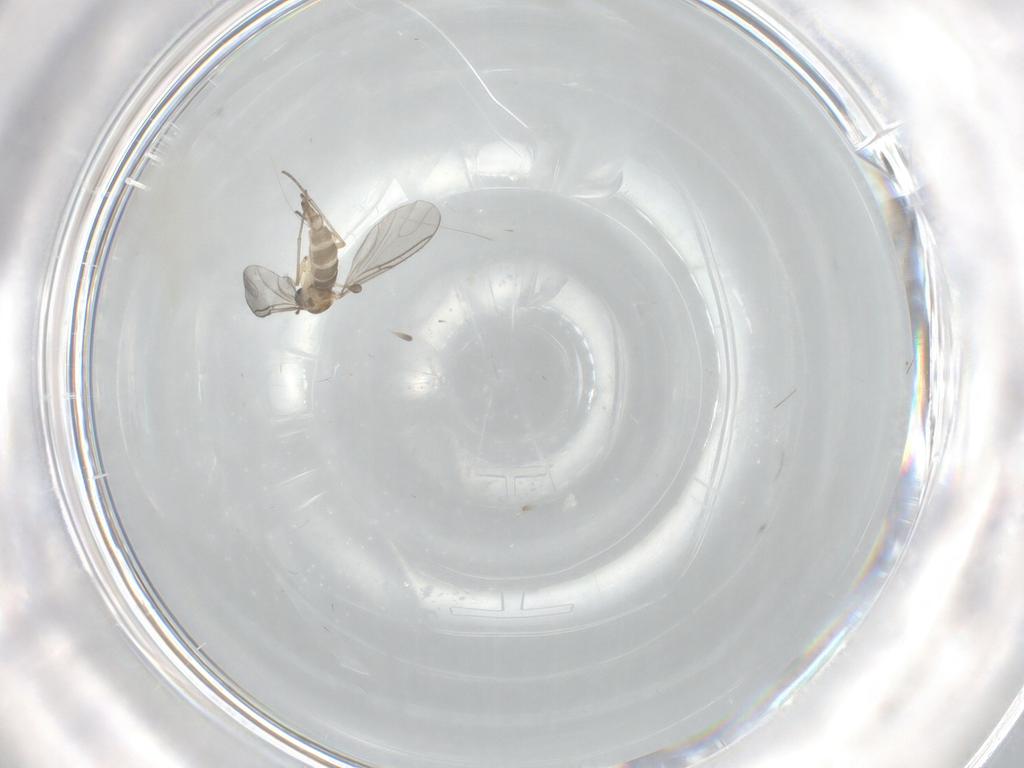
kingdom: Animalia
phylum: Arthropoda
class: Insecta
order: Diptera
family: Sciaridae
